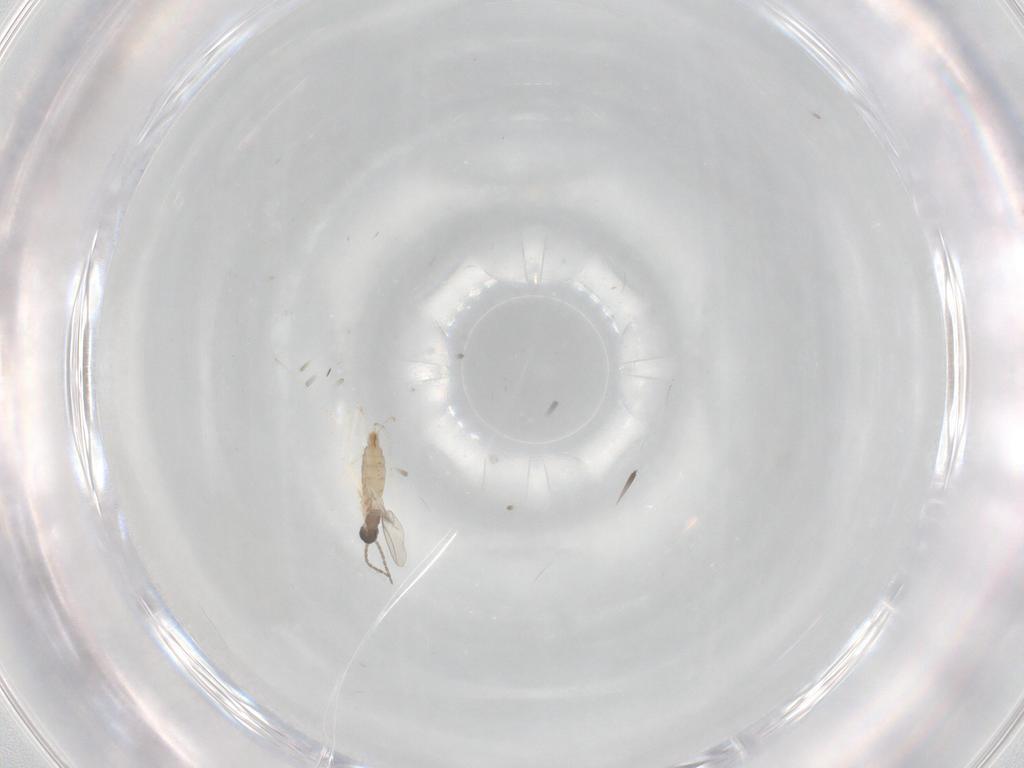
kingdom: Animalia
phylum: Arthropoda
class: Insecta
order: Diptera
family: Cecidomyiidae
